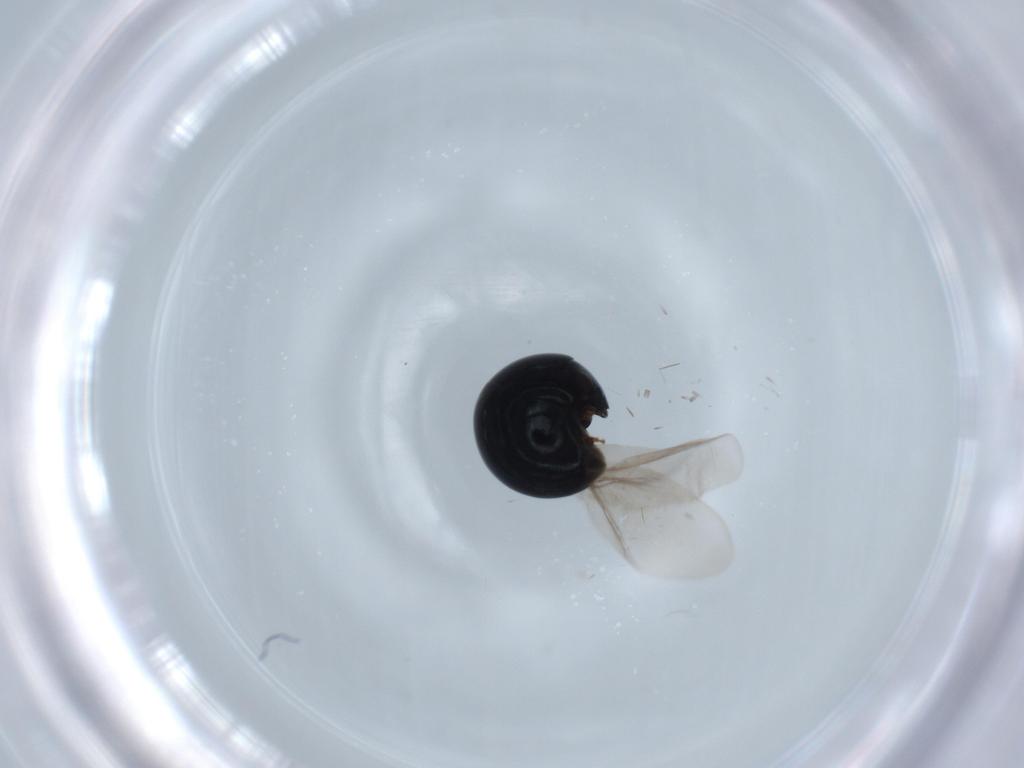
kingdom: Animalia
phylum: Arthropoda
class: Insecta
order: Coleoptera
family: Cybocephalidae
